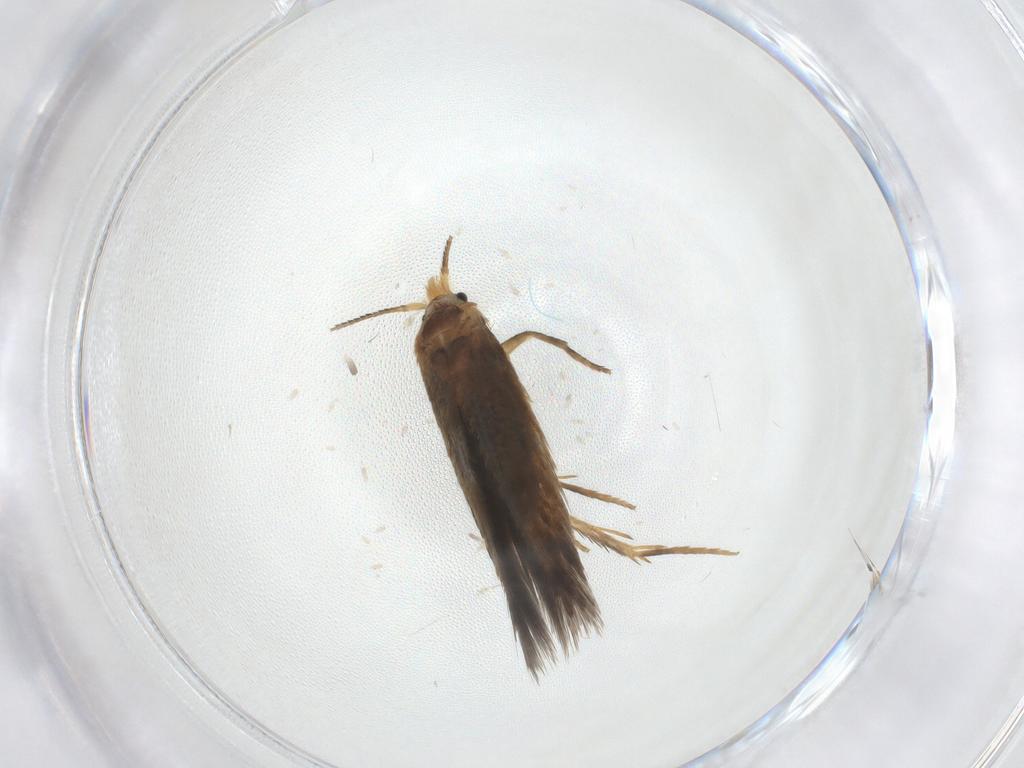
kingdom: Animalia
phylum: Arthropoda
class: Insecta
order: Lepidoptera
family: Nepticulidae
